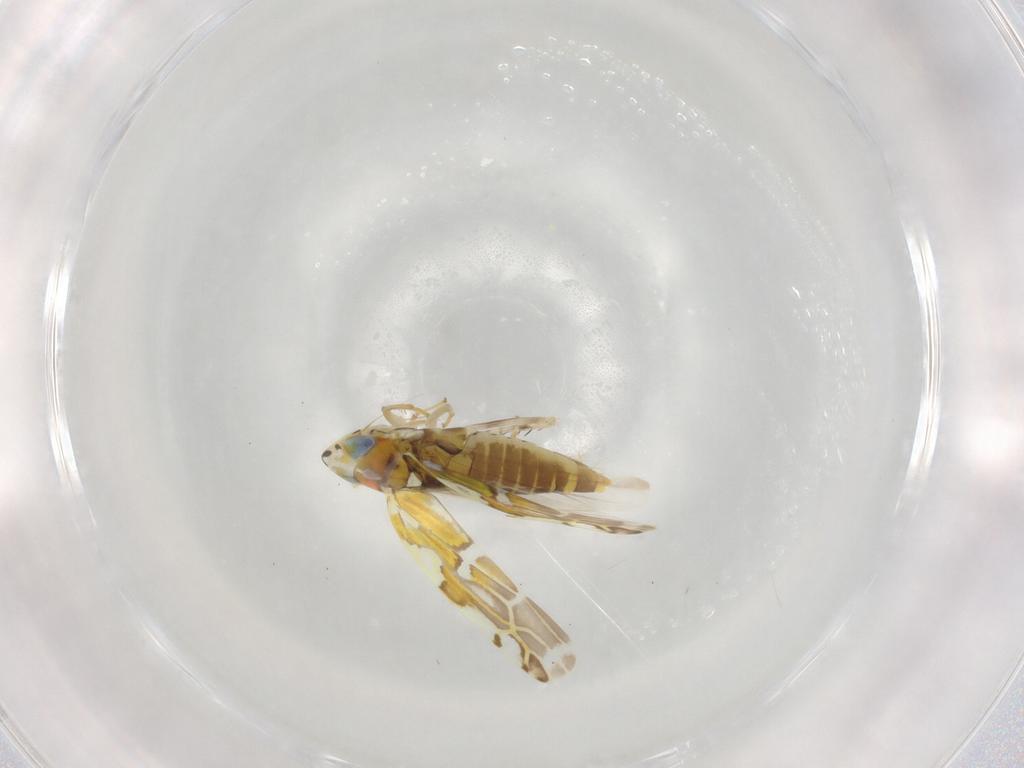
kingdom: Animalia
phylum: Arthropoda
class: Insecta
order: Hemiptera
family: Cicadellidae
